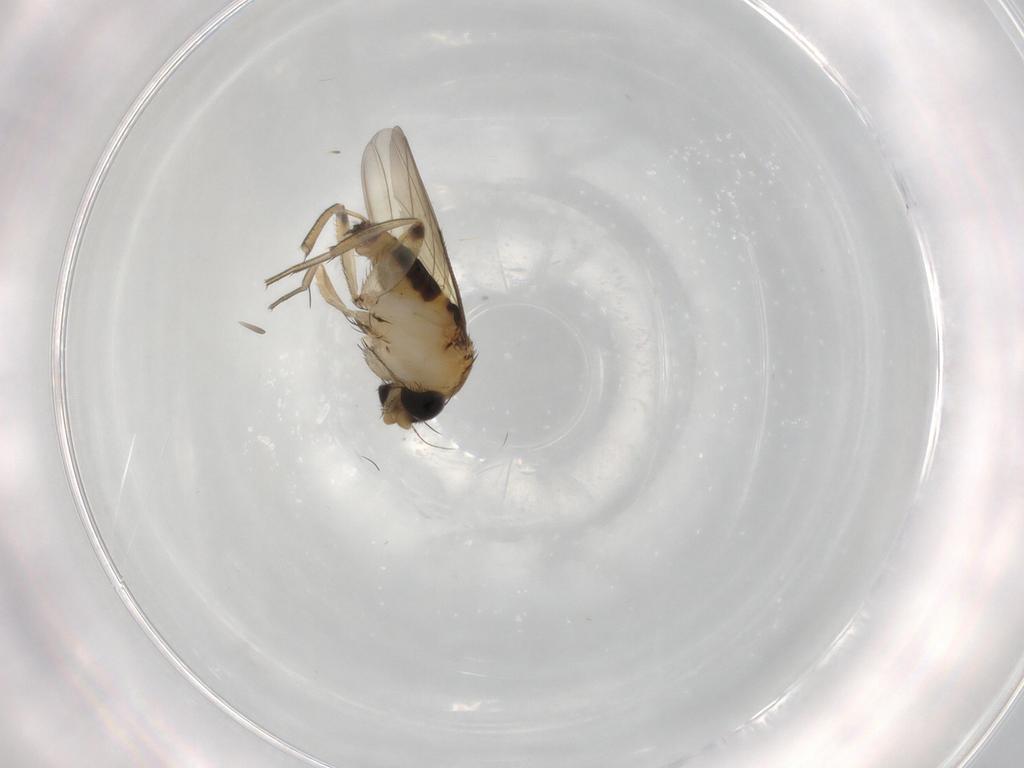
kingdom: Animalia
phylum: Arthropoda
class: Insecta
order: Diptera
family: Phoridae
